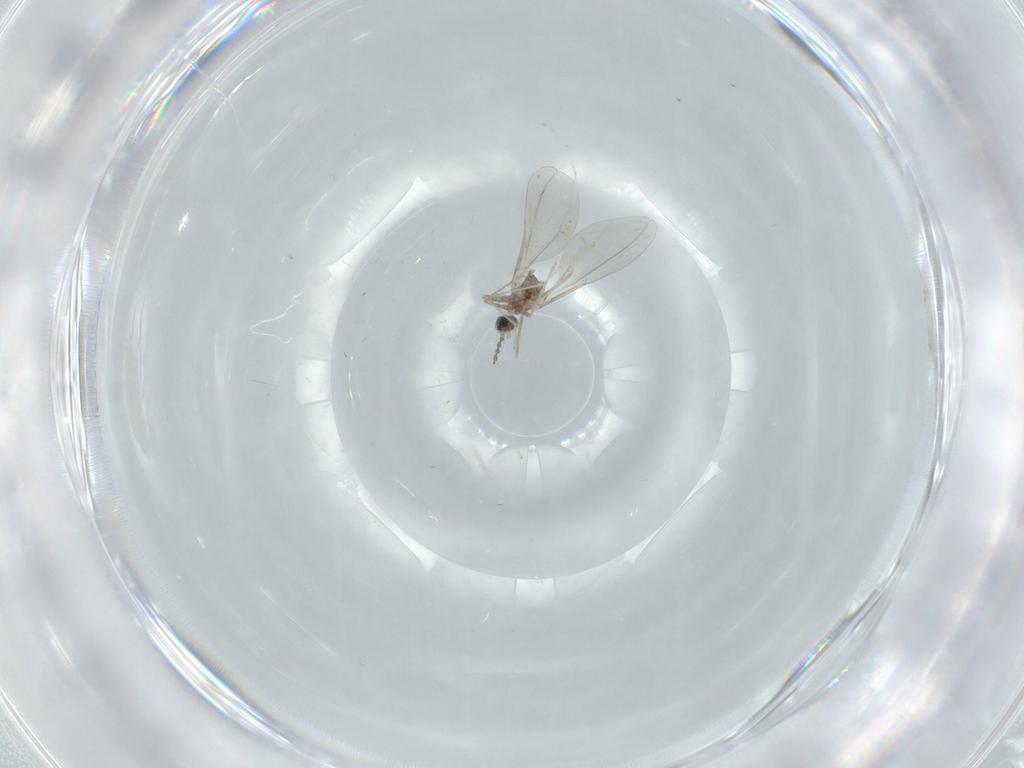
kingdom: Animalia
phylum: Arthropoda
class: Insecta
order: Diptera
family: Cecidomyiidae
